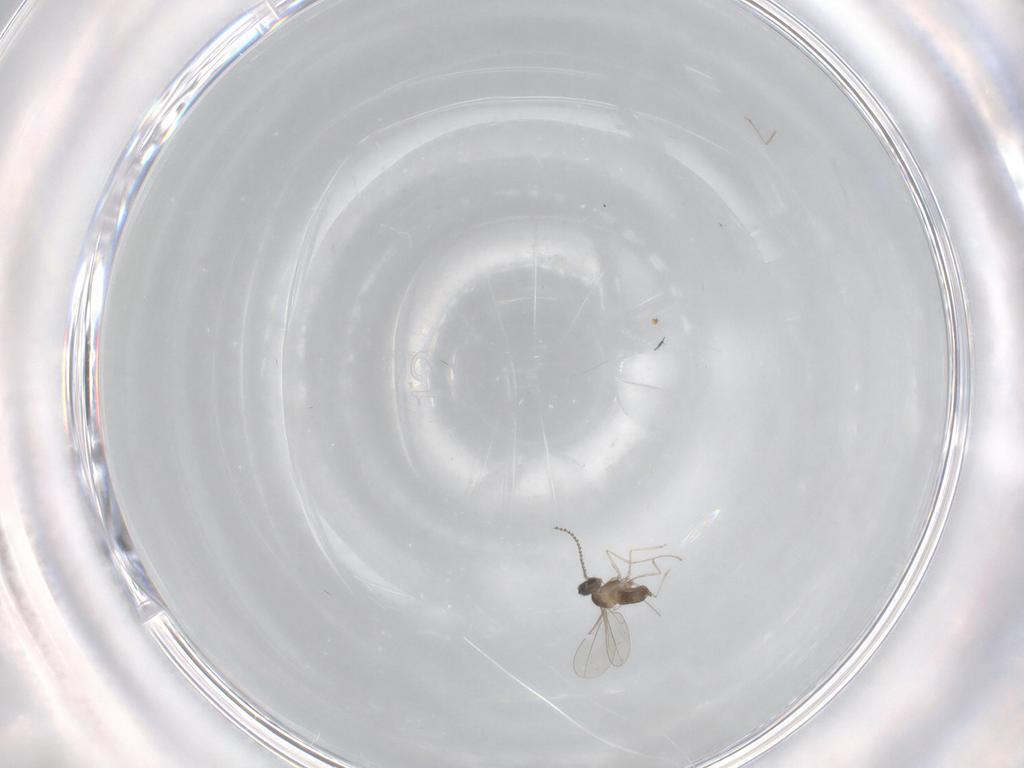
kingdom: Animalia
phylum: Arthropoda
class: Insecta
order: Diptera
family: Cecidomyiidae
